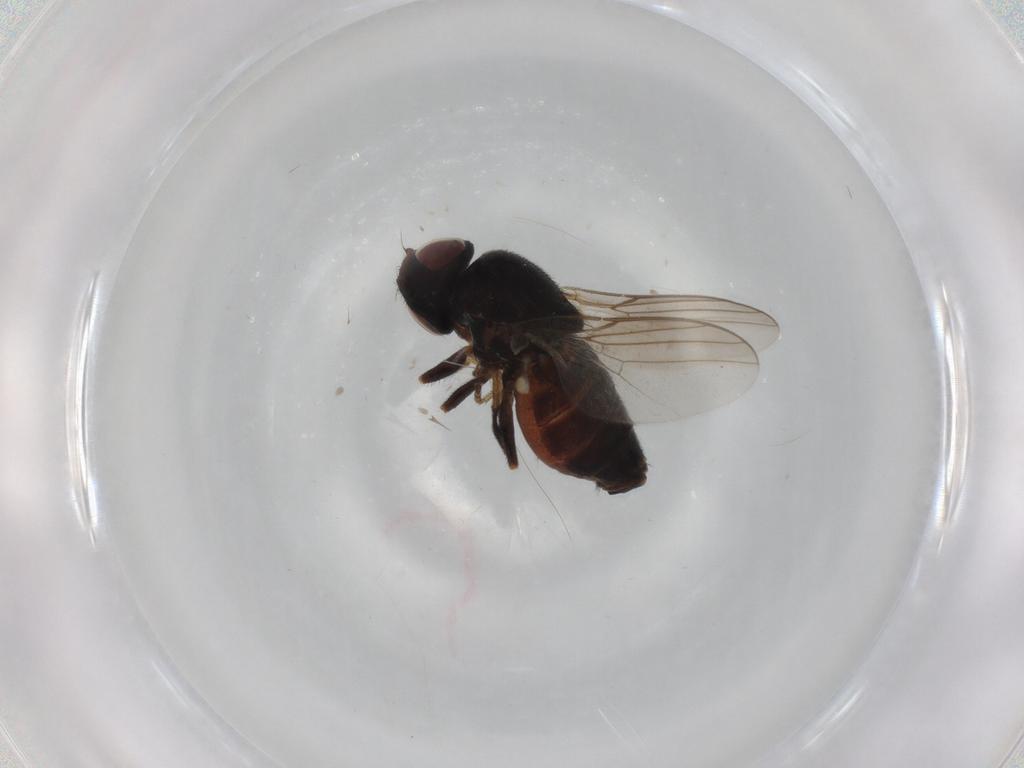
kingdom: Animalia
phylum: Arthropoda
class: Insecta
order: Diptera
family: Chloropidae
